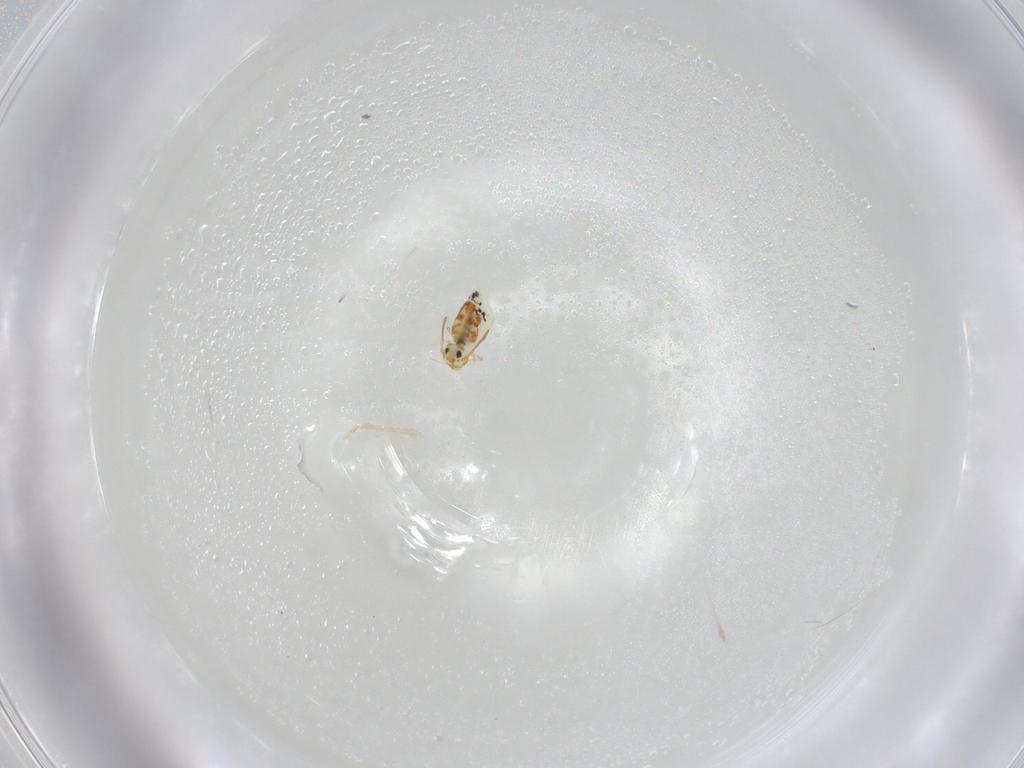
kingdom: Animalia
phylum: Arthropoda
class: Collembola
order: Symphypleona
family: Bourletiellidae
